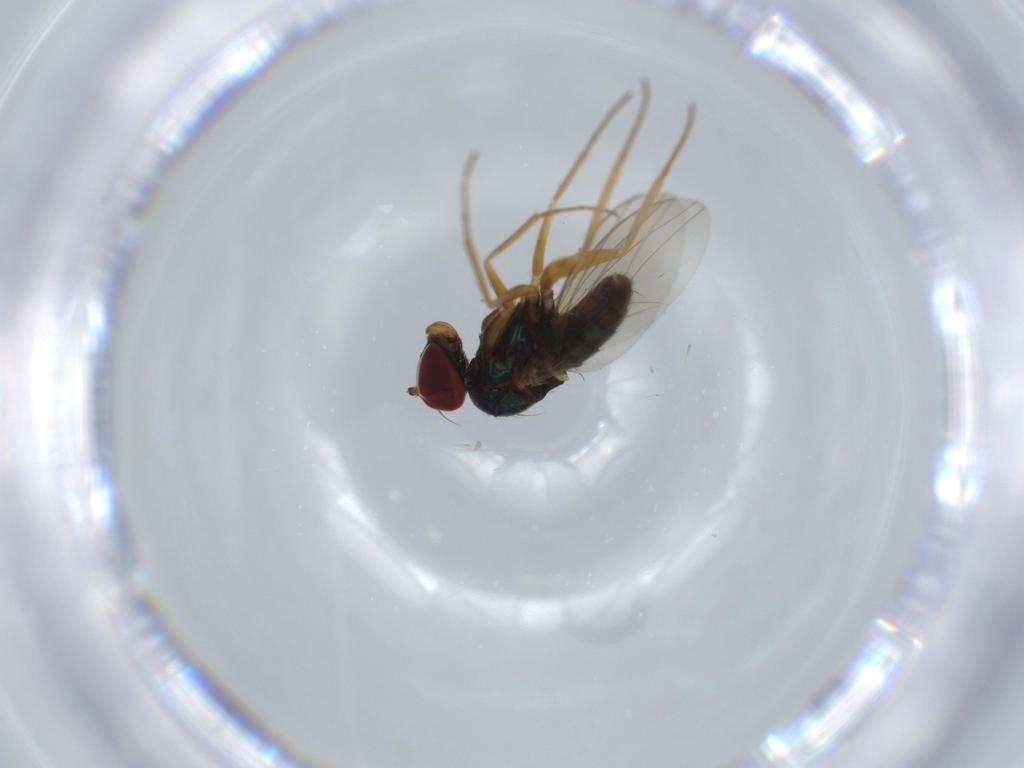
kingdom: Animalia
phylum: Arthropoda
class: Insecta
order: Diptera
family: Dolichopodidae
